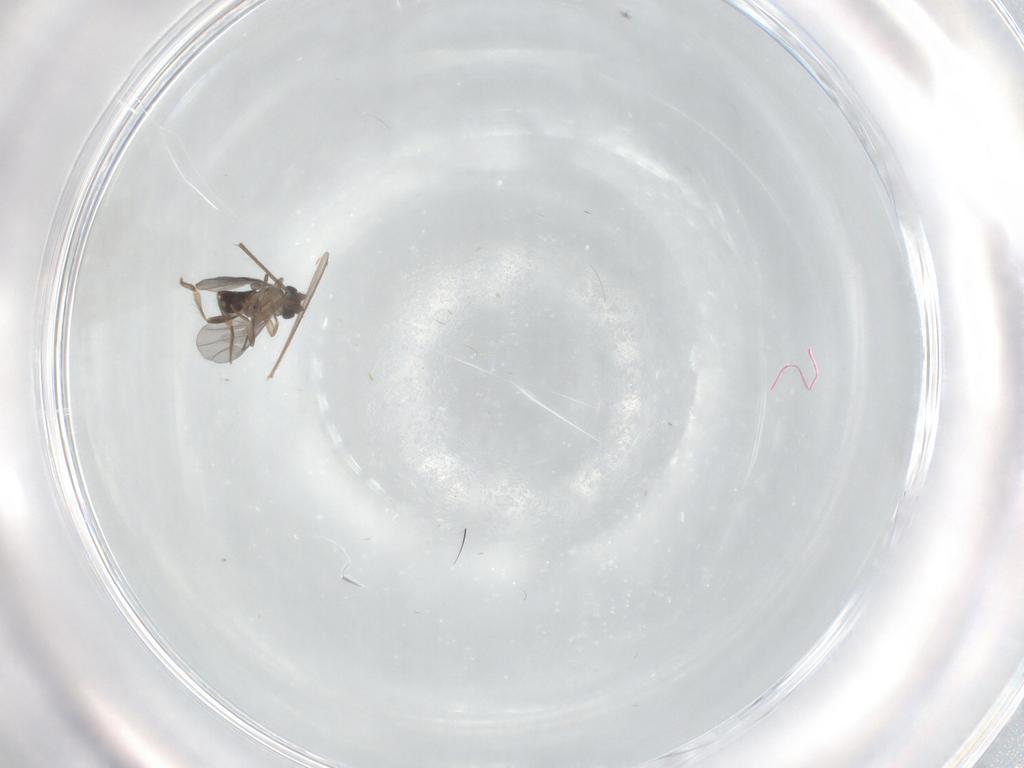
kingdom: Animalia
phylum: Arthropoda
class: Insecta
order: Diptera
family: Chironomidae
